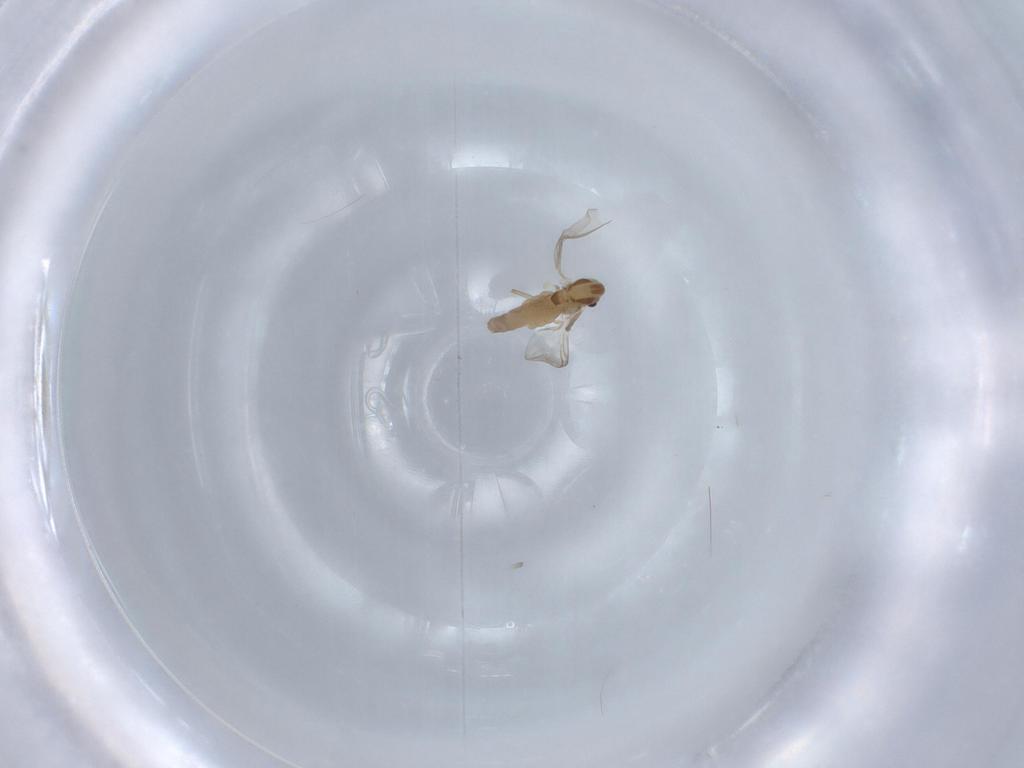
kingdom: Animalia
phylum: Arthropoda
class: Insecta
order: Diptera
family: Chironomidae
